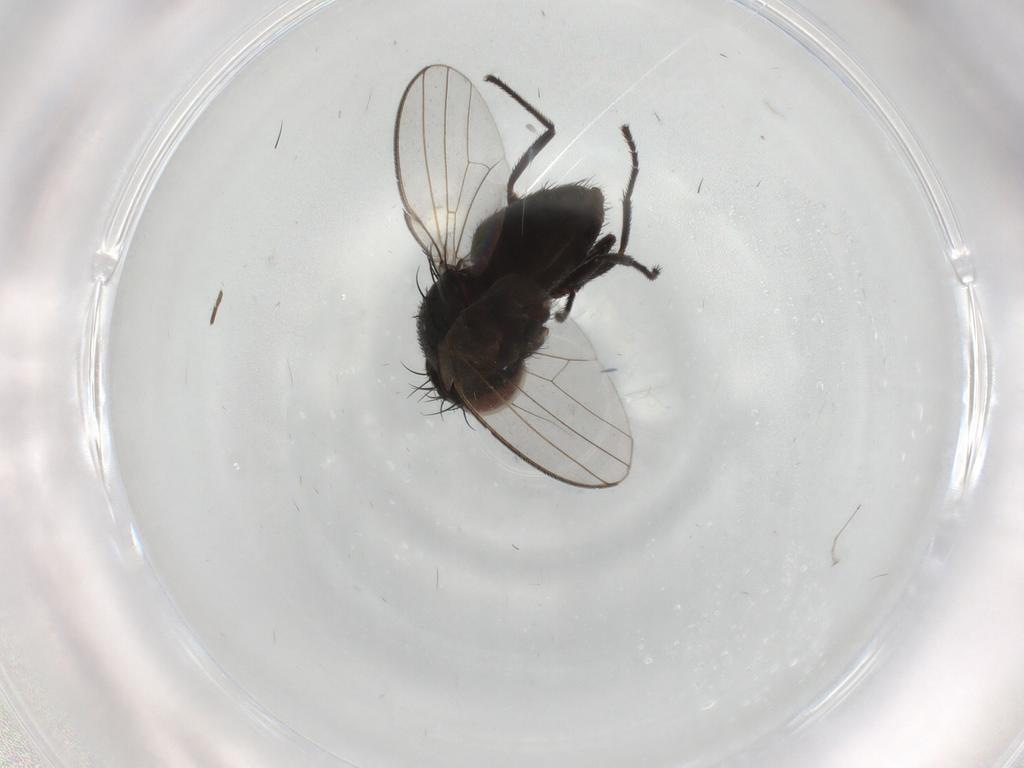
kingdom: Animalia
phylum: Arthropoda
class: Insecta
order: Diptera
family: Milichiidae
